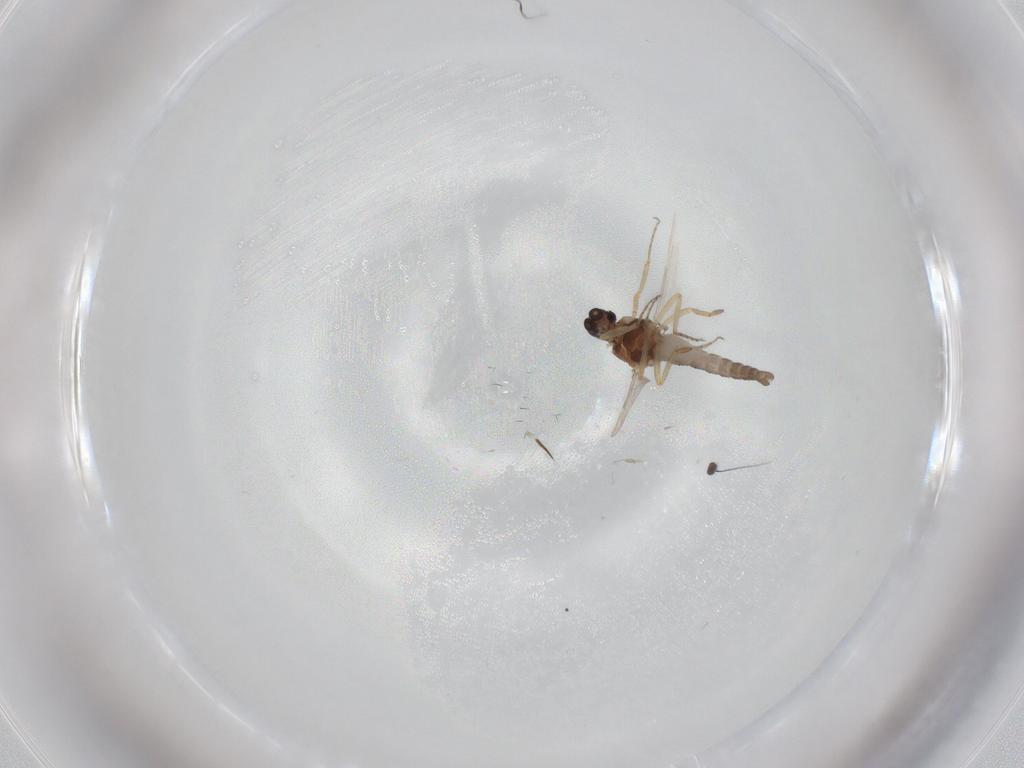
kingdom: Animalia
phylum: Arthropoda
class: Insecta
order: Diptera
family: Ceratopogonidae
